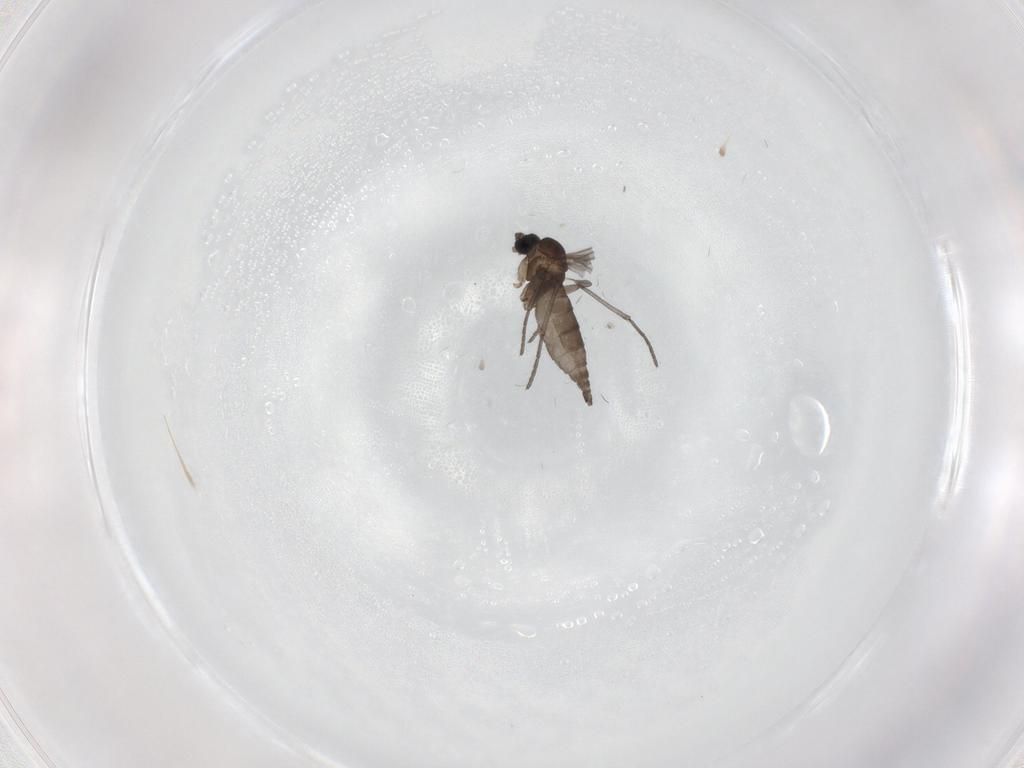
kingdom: Animalia
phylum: Arthropoda
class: Insecta
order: Diptera
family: Sciaridae
